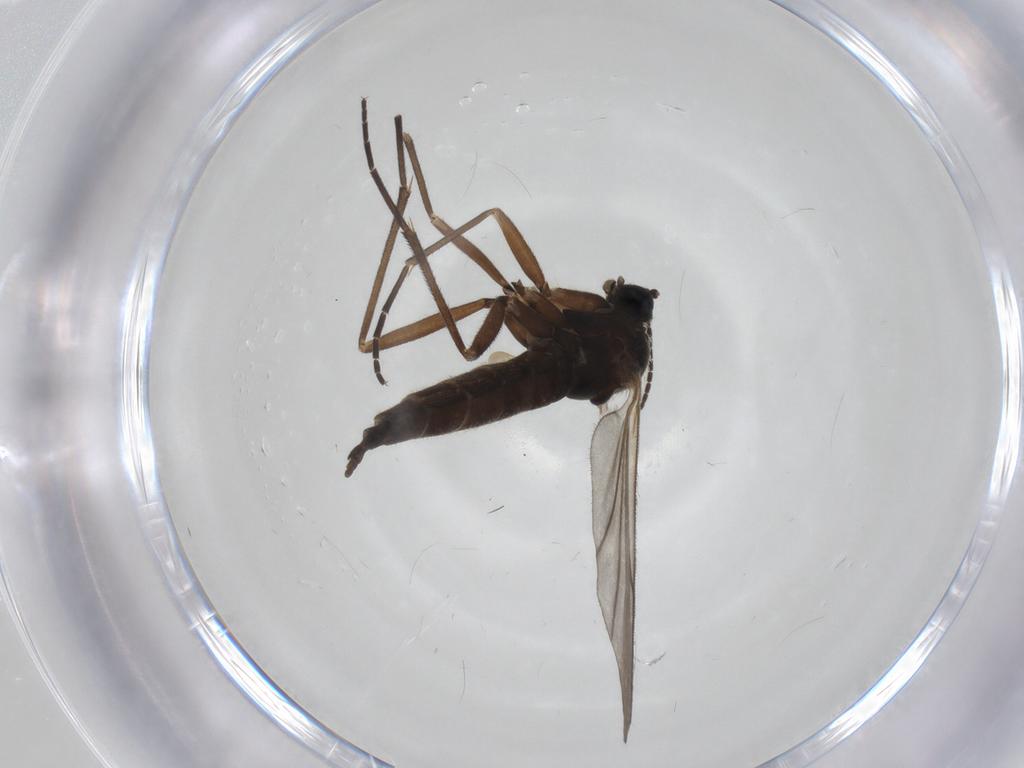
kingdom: Animalia
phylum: Arthropoda
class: Insecta
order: Diptera
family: Sciaridae
